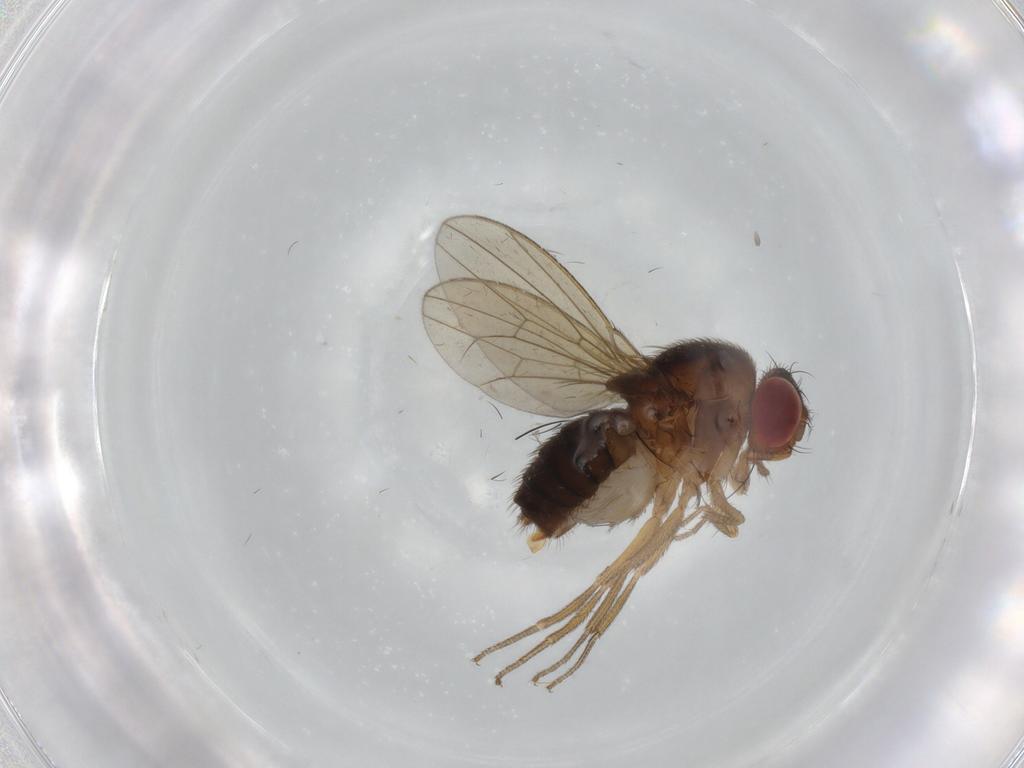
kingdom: Animalia
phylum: Arthropoda
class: Insecta
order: Diptera
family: Drosophilidae
